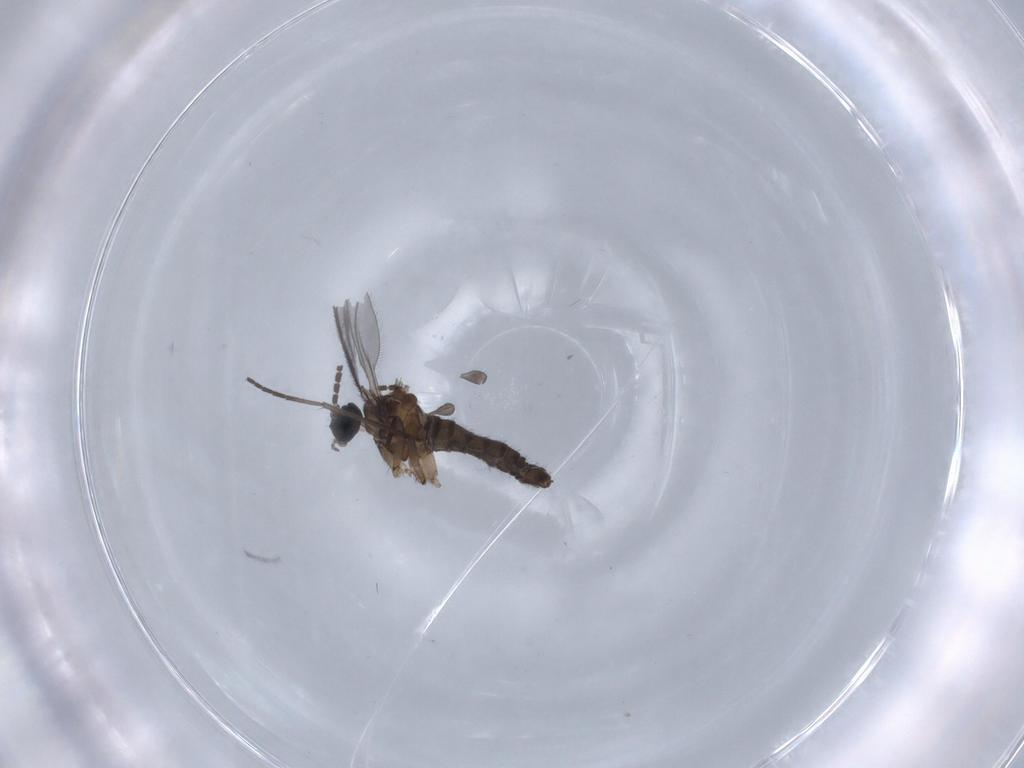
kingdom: Animalia
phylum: Arthropoda
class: Insecta
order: Diptera
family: Sciaridae
